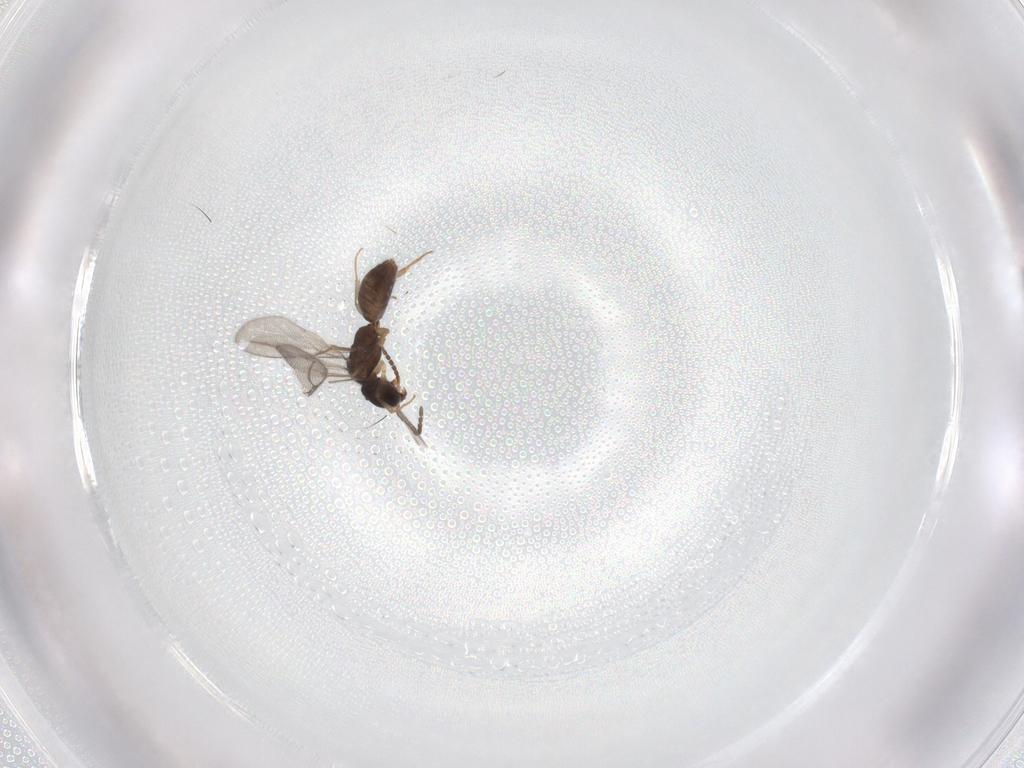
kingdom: Animalia
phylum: Arthropoda
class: Insecta
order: Hymenoptera
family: Bethylidae
